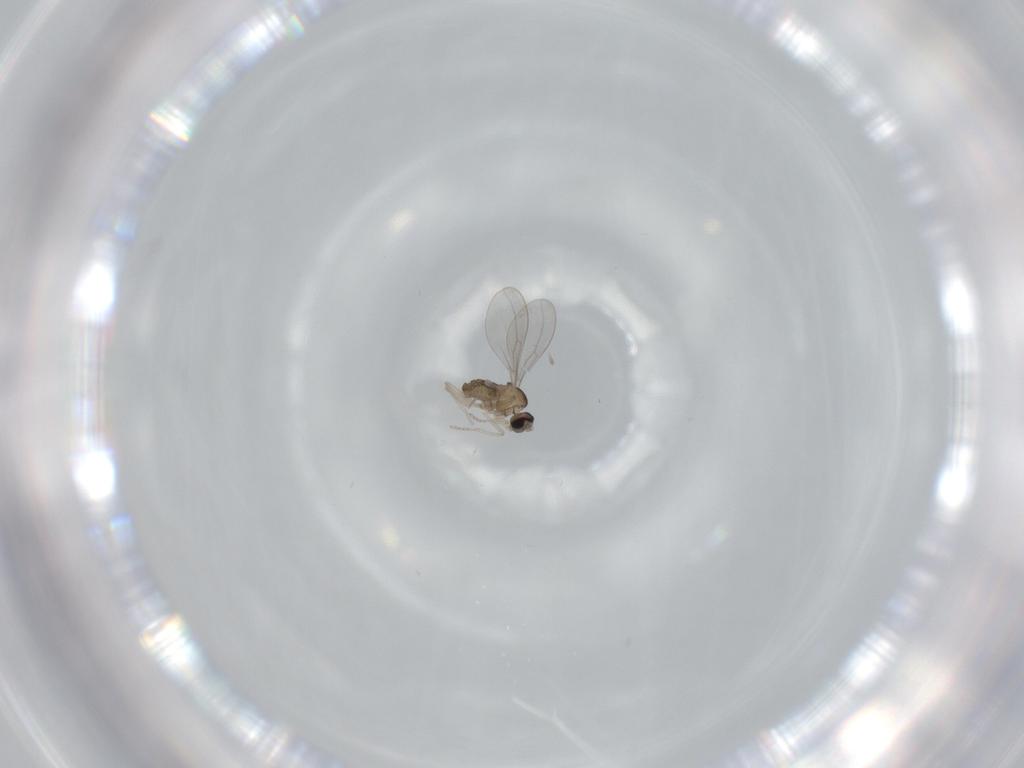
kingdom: Animalia
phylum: Arthropoda
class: Insecta
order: Diptera
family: Cecidomyiidae
